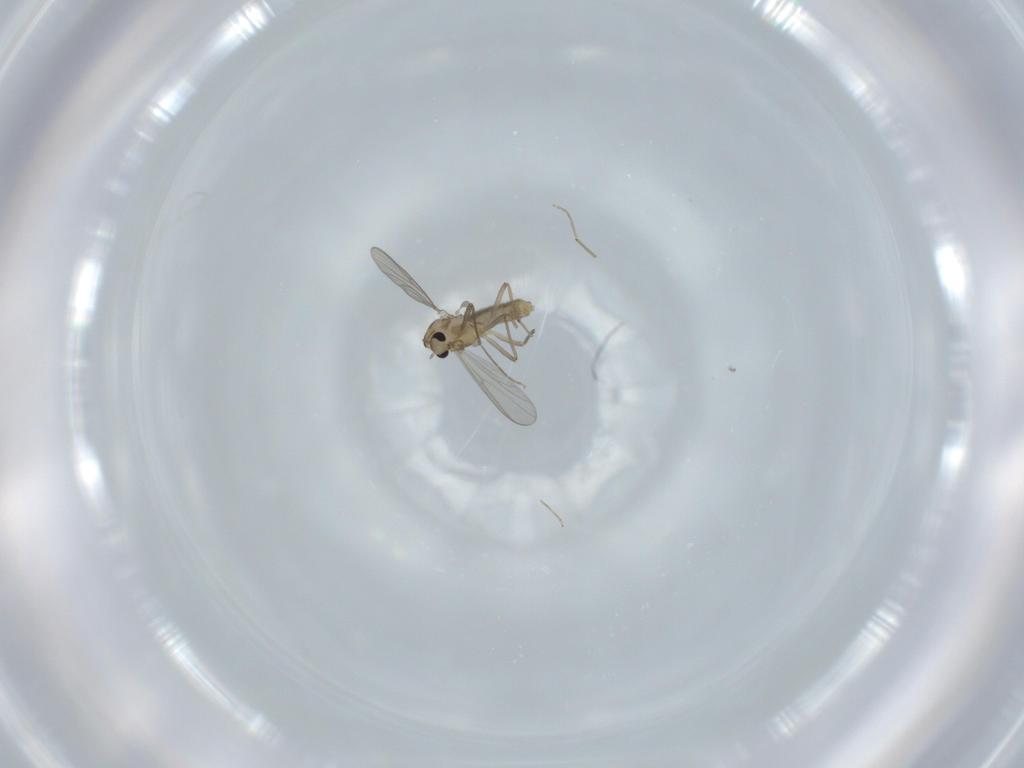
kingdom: Animalia
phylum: Arthropoda
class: Insecta
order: Diptera
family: Chironomidae
